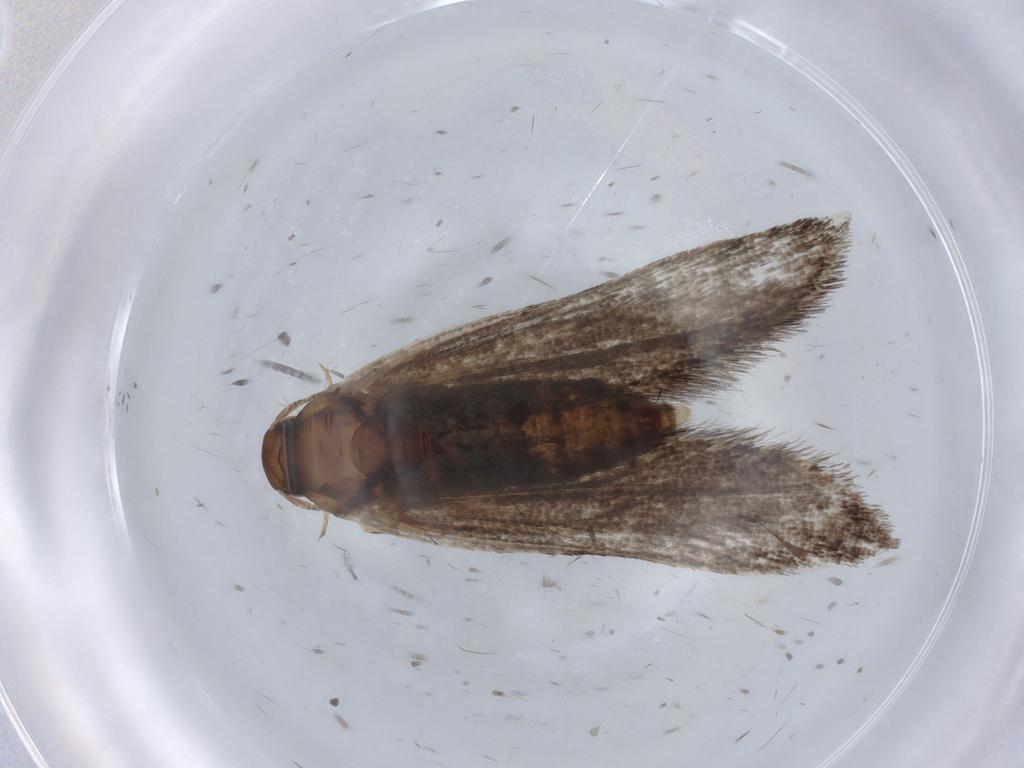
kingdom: Animalia
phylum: Arthropoda
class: Insecta
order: Lepidoptera
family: Noctuidae
